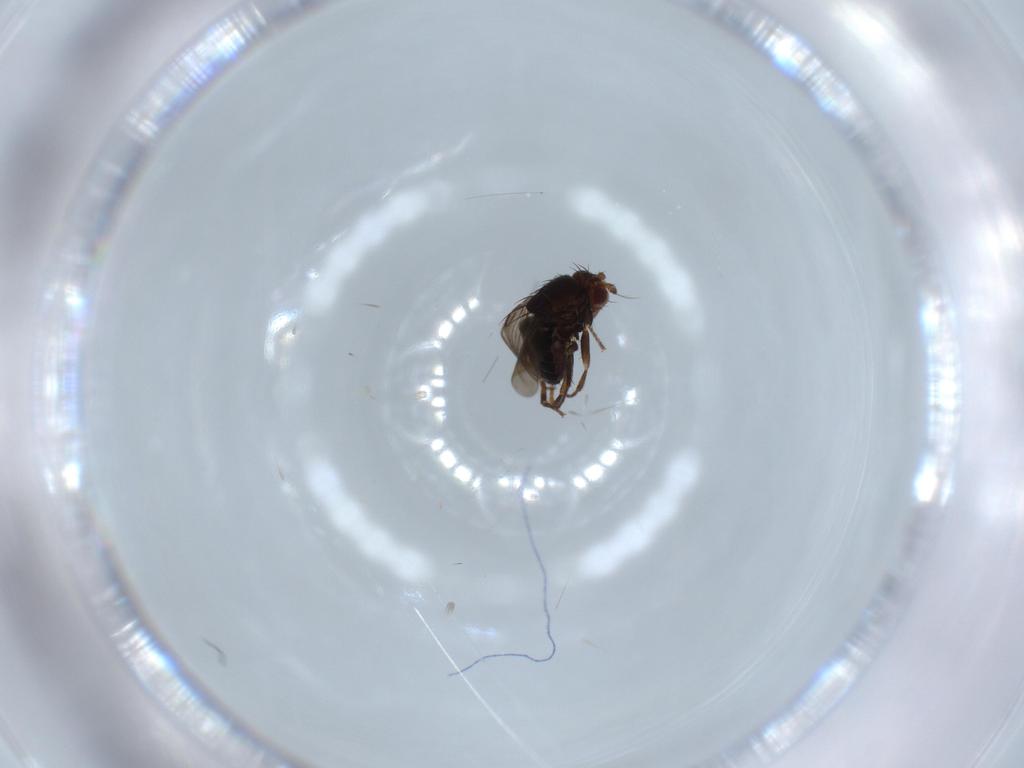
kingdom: Animalia
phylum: Arthropoda
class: Insecta
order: Diptera
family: Sphaeroceridae
